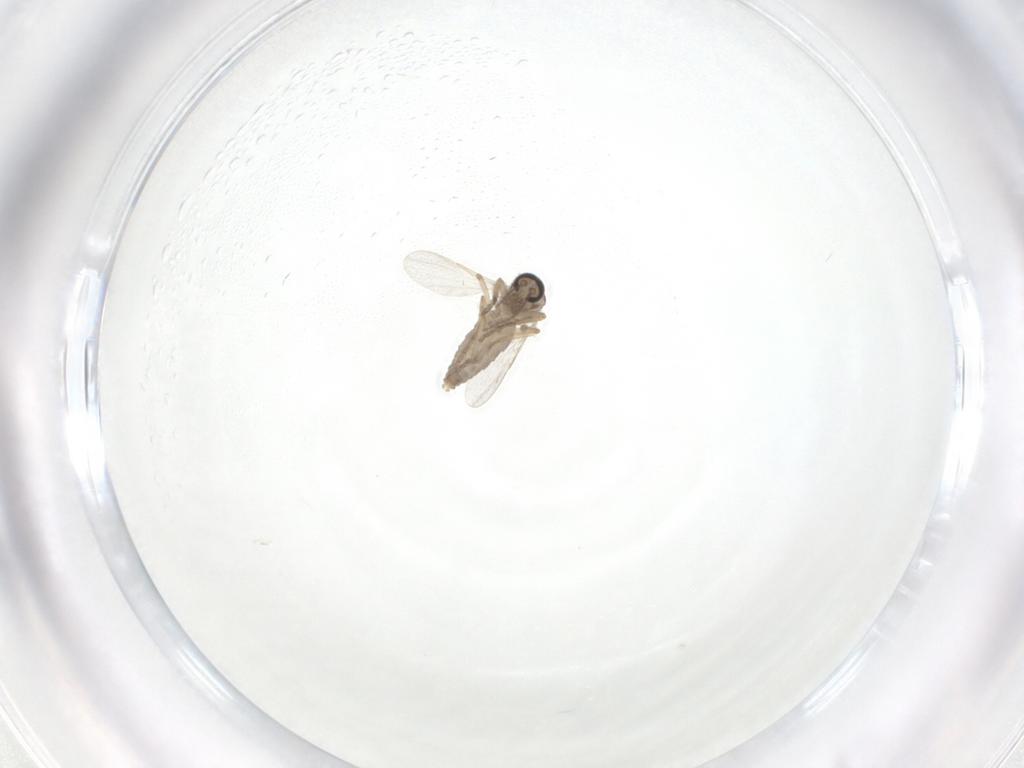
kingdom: Animalia
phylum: Arthropoda
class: Insecta
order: Diptera
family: Ceratopogonidae
